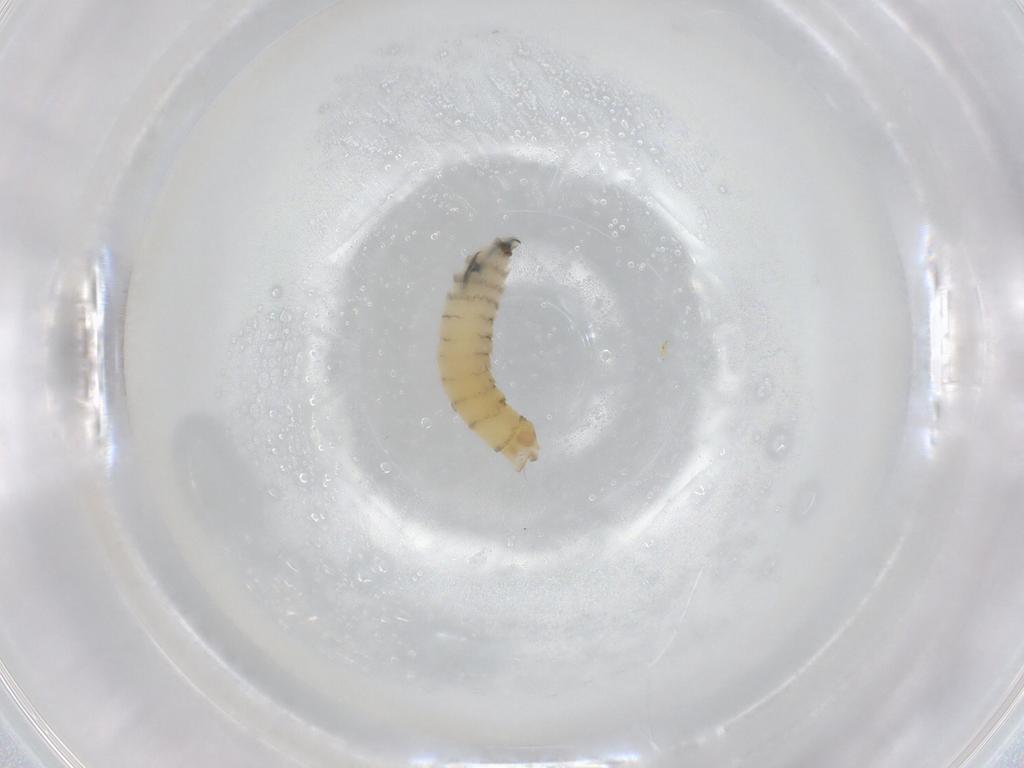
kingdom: Animalia
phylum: Arthropoda
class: Insecta
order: Diptera
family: Sarcophagidae
